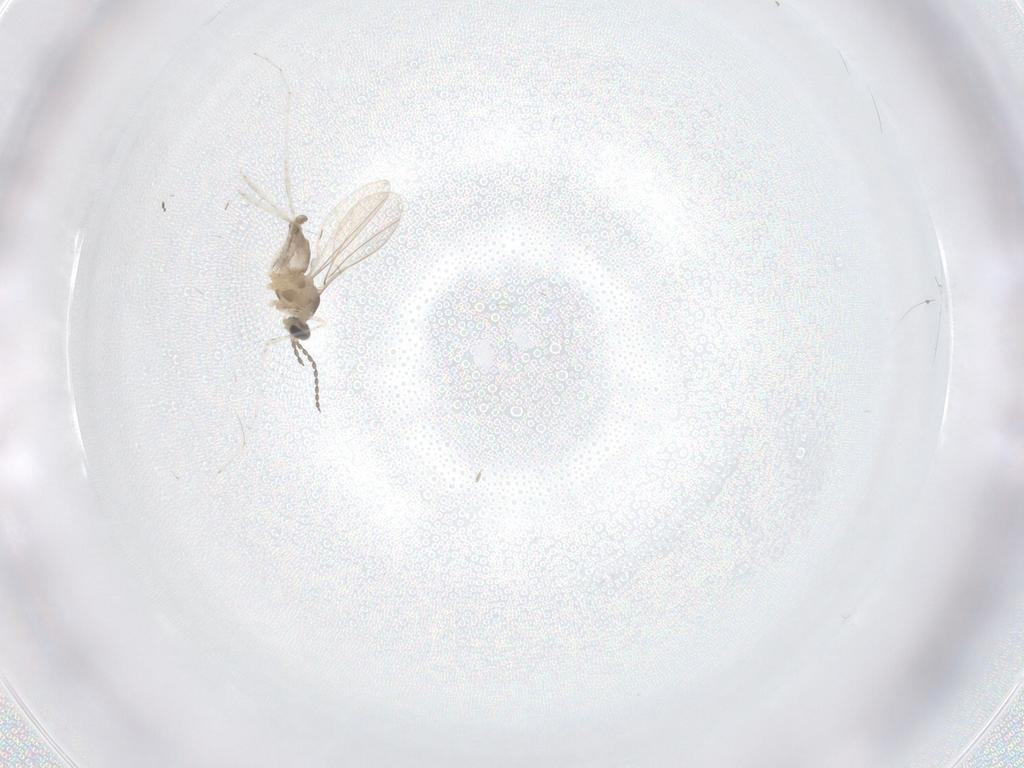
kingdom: Animalia
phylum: Arthropoda
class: Insecta
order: Diptera
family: Cecidomyiidae
